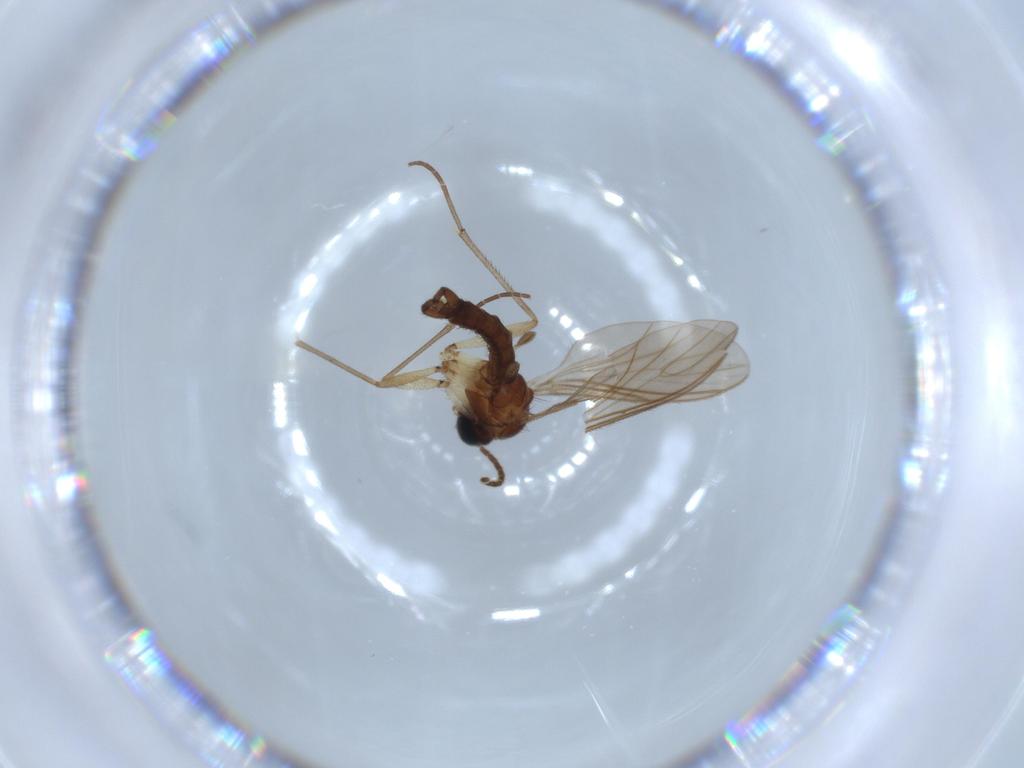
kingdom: Animalia
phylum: Arthropoda
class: Insecta
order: Diptera
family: Sciaridae
